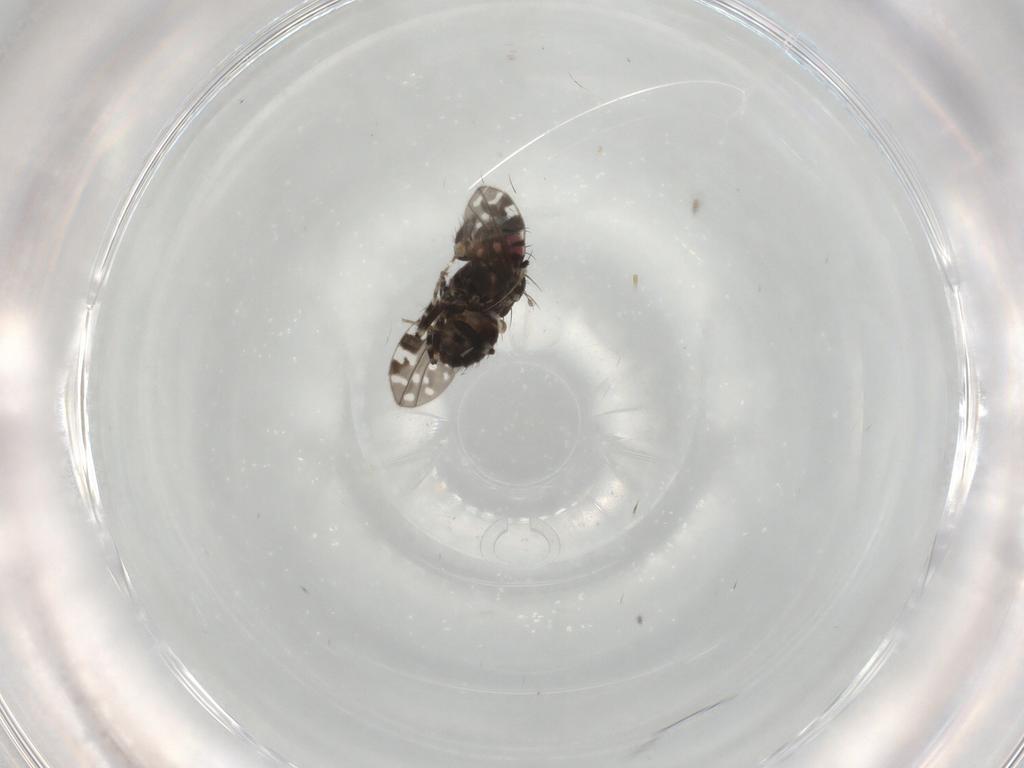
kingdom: Animalia
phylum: Arthropoda
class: Insecta
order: Diptera
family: Drosophilidae
